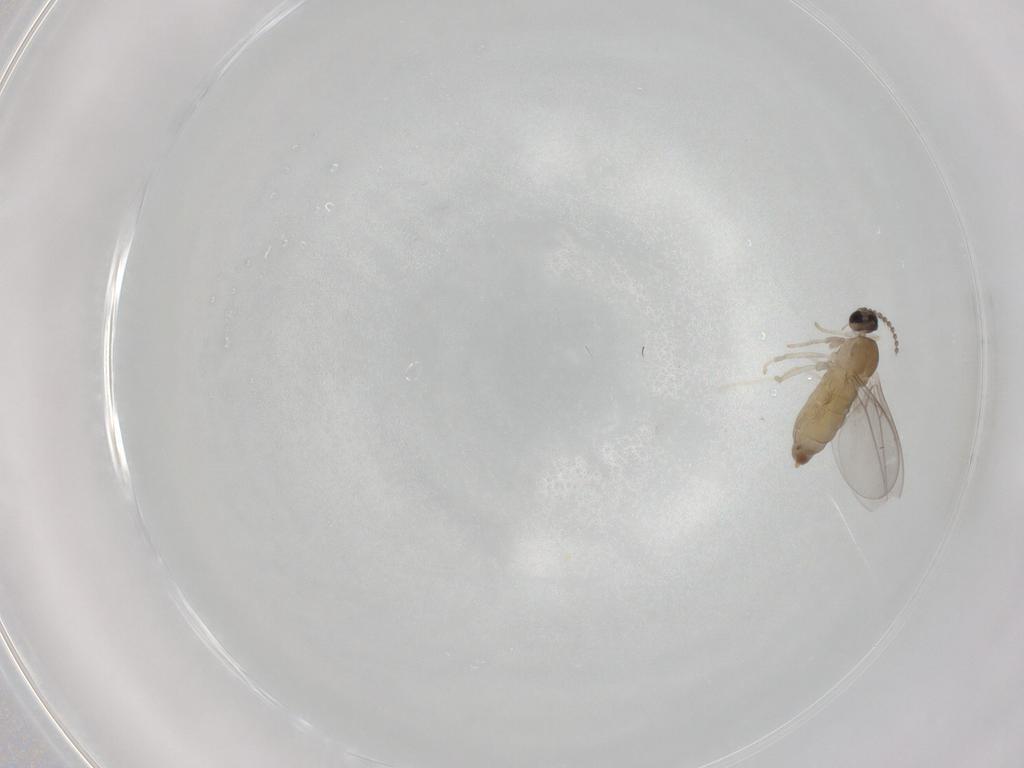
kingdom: Animalia
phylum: Arthropoda
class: Insecta
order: Diptera
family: Cecidomyiidae
